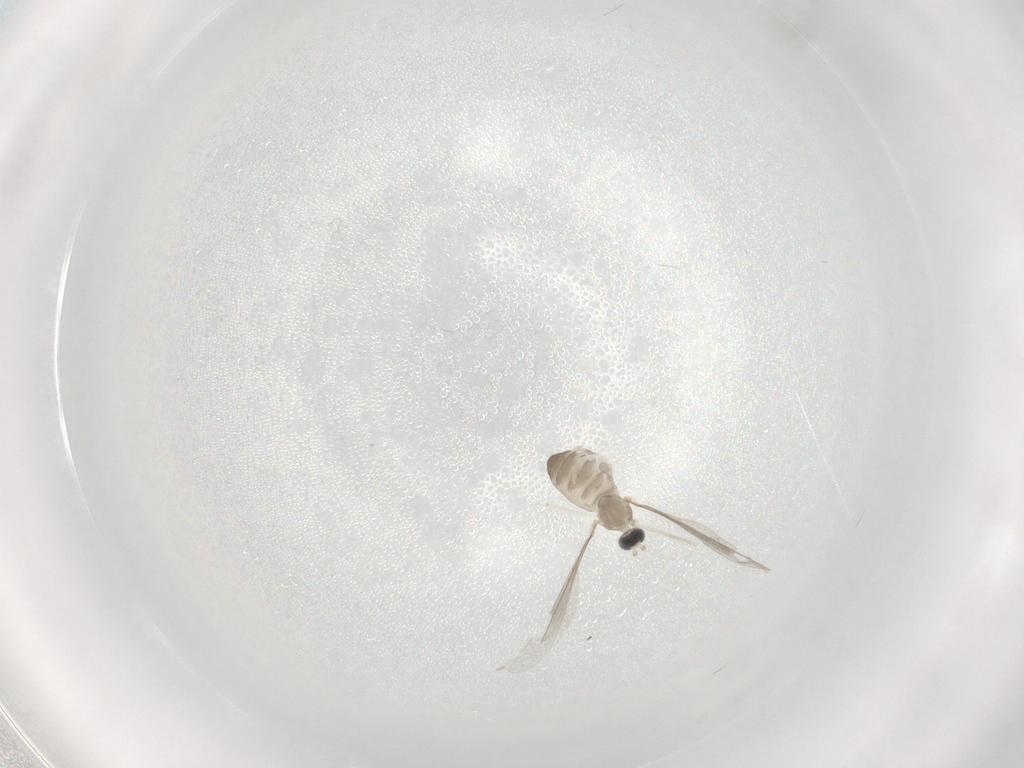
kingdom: Animalia
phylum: Arthropoda
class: Insecta
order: Diptera
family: Cecidomyiidae
